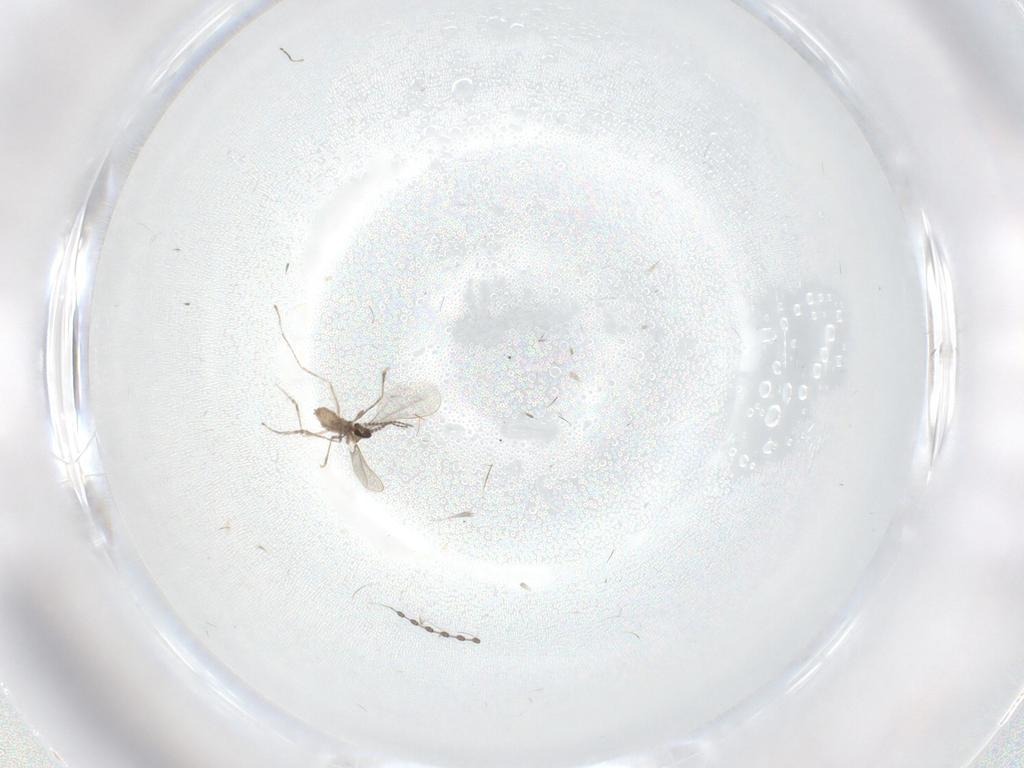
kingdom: Animalia
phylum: Arthropoda
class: Insecta
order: Diptera
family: Cecidomyiidae
